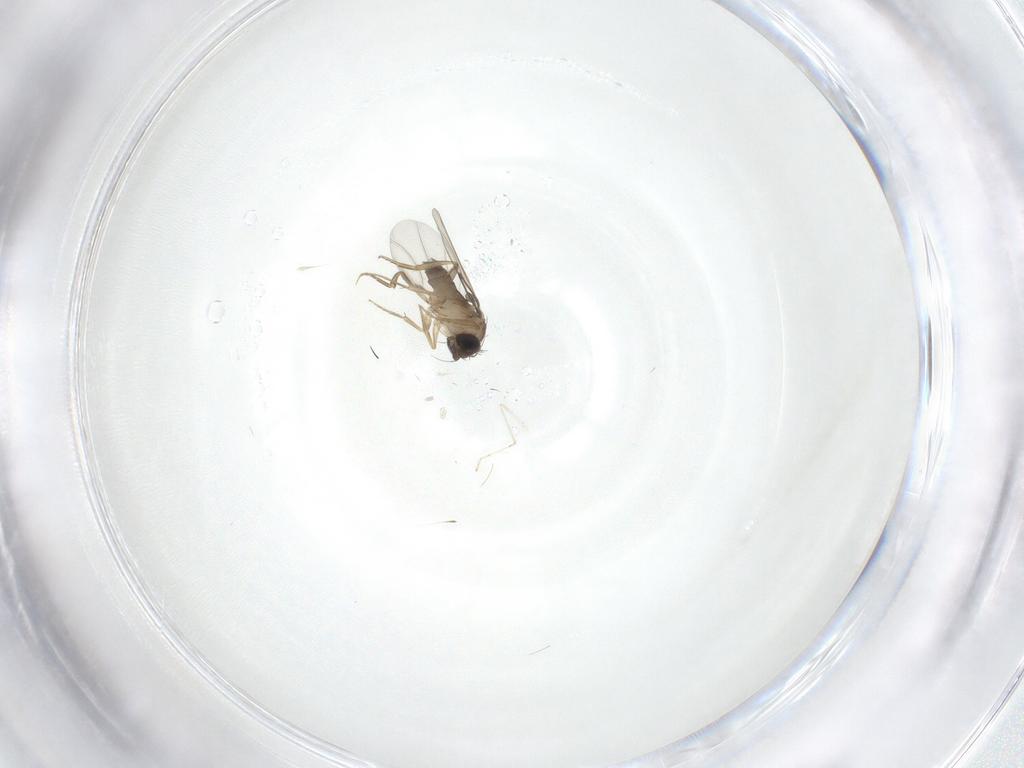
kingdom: Animalia
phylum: Arthropoda
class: Insecta
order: Diptera
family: Phoridae
